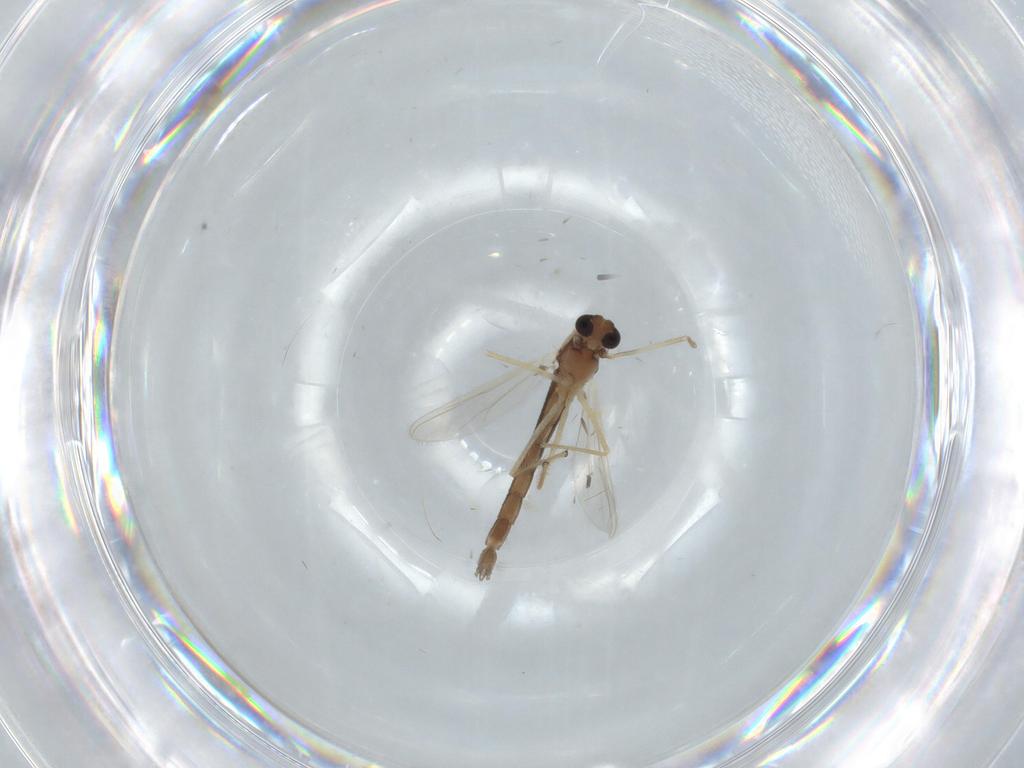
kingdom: Animalia
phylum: Arthropoda
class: Insecta
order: Diptera
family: Chironomidae
